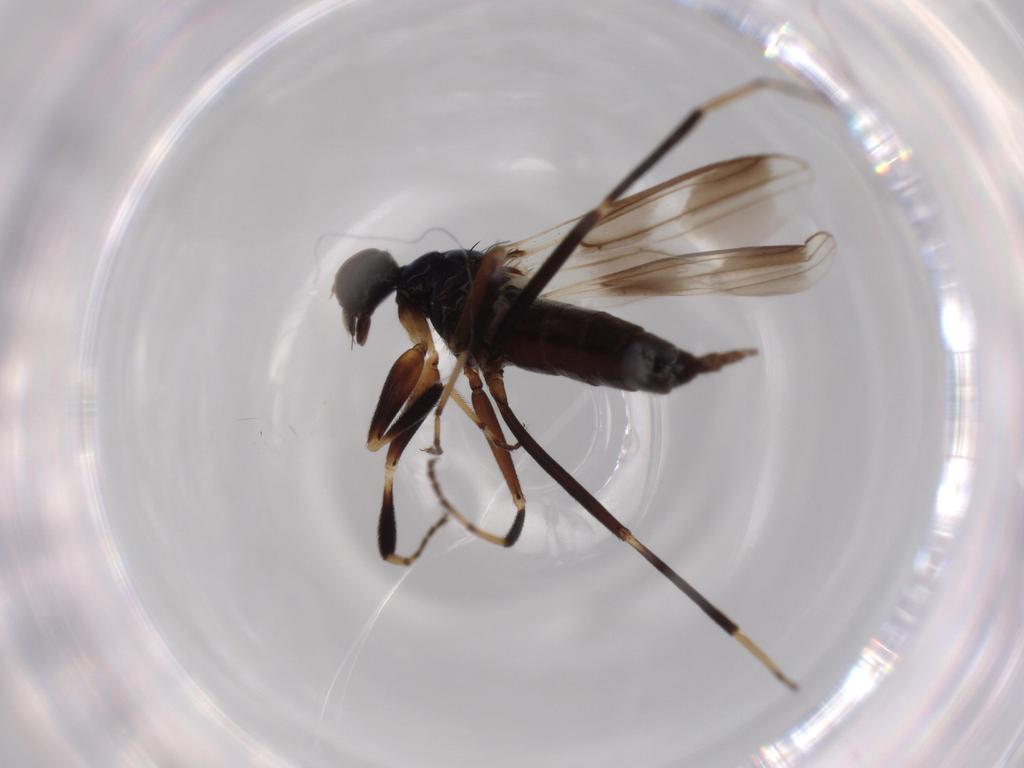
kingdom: Animalia
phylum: Arthropoda
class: Insecta
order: Diptera
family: Hybotidae
